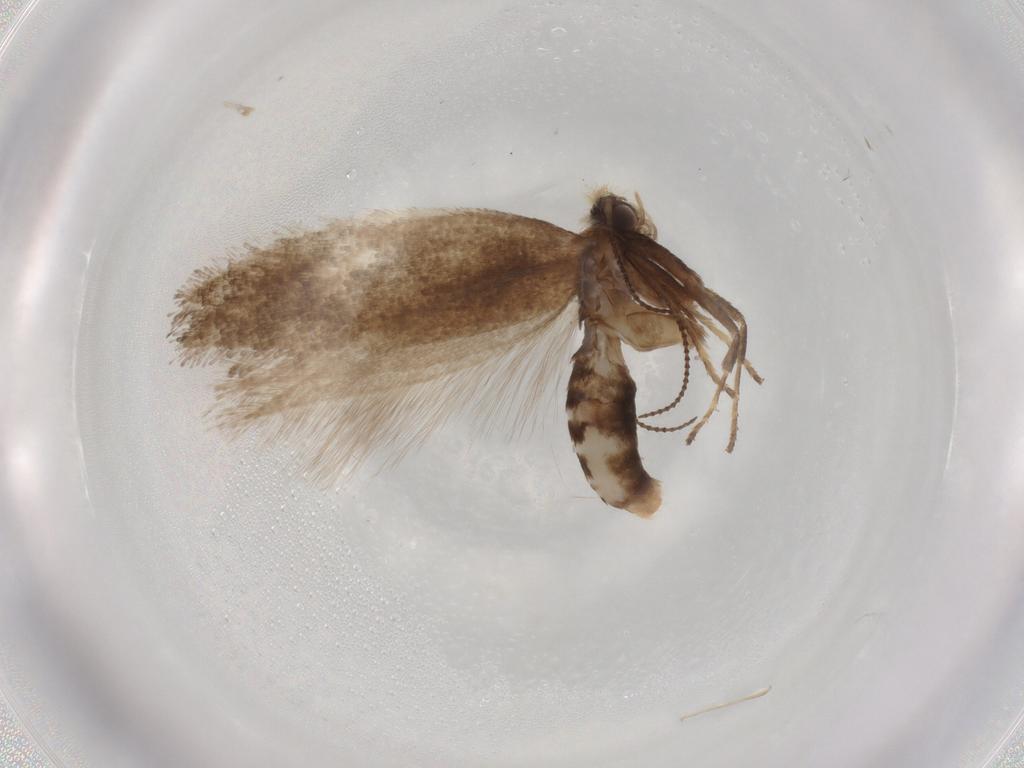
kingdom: Animalia
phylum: Arthropoda
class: Insecta
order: Lepidoptera
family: Nepticulidae
